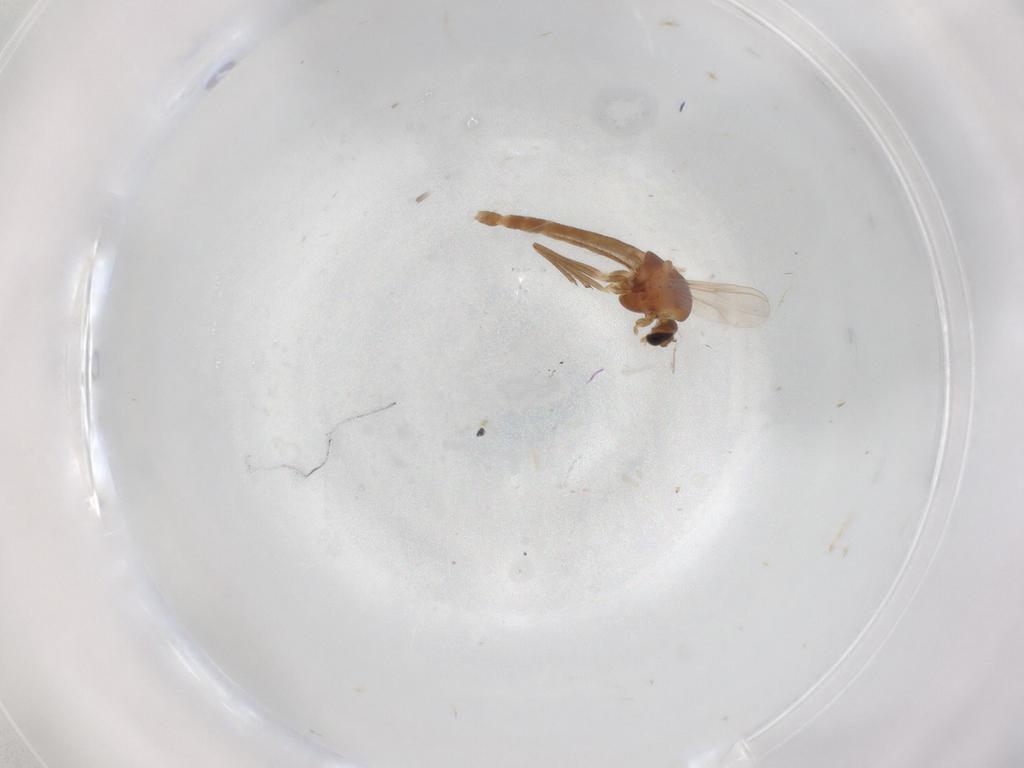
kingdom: Animalia
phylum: Arthropoda
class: Insecta
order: Diptera
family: Chironomidae
